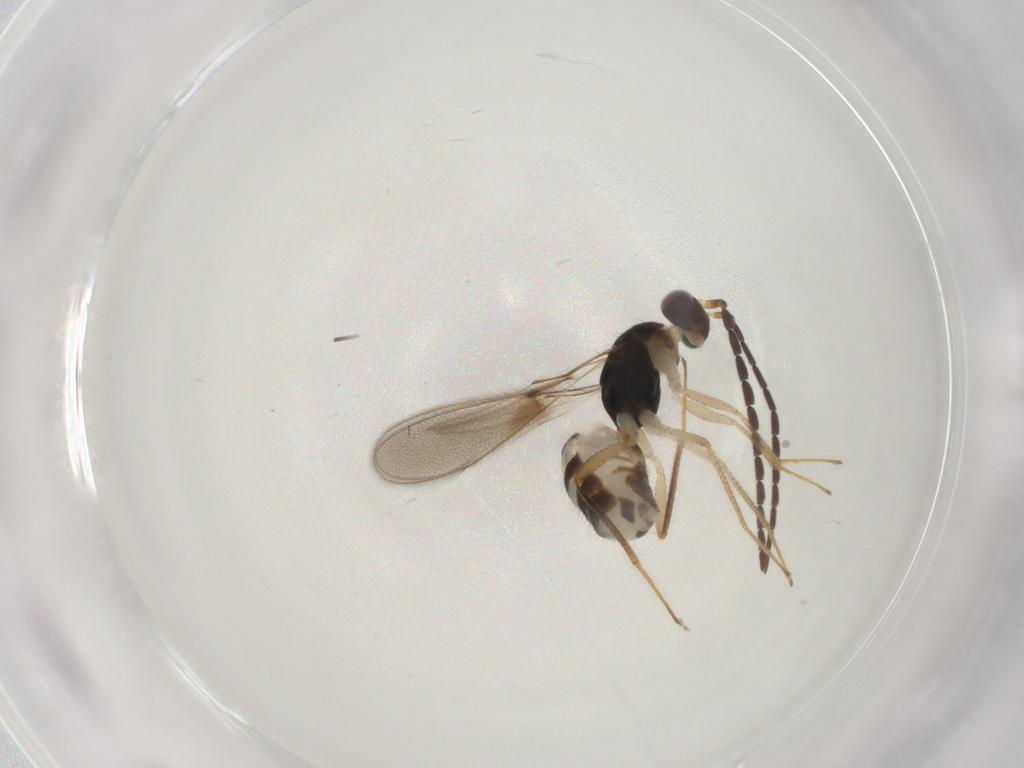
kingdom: Animalia
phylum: Arthropoda
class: Insecta
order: Hymenoptera
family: Mymaridae
